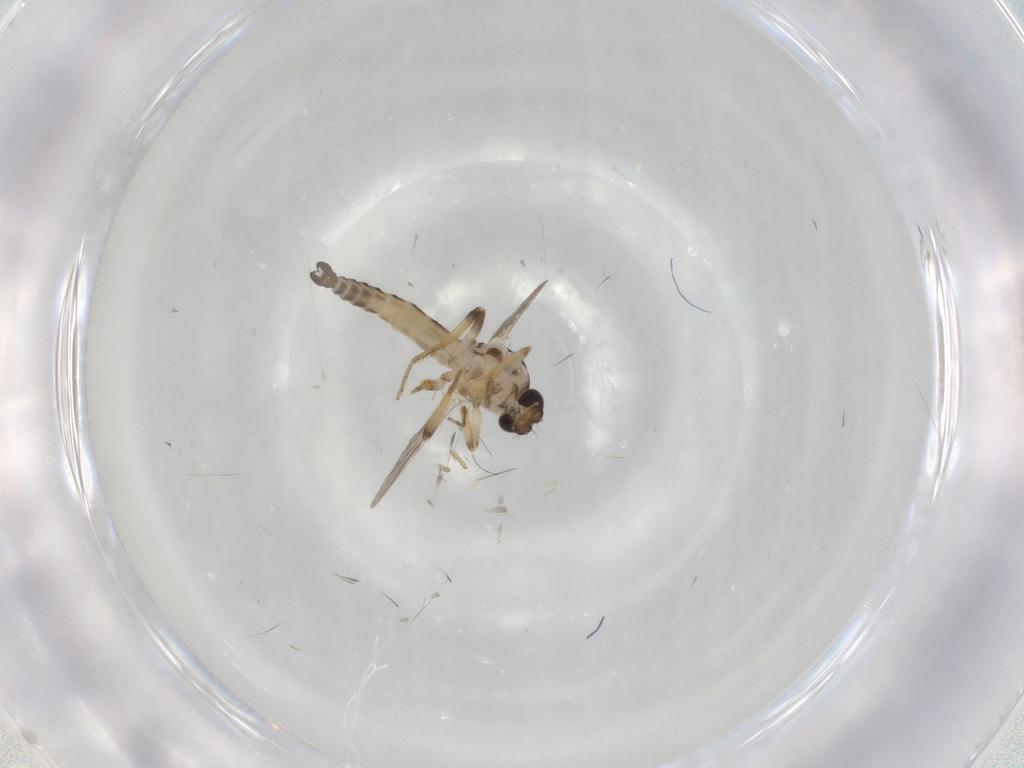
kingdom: Animalia
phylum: Arthropoda
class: Insecta
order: Diptera
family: Ceratopogonidae
